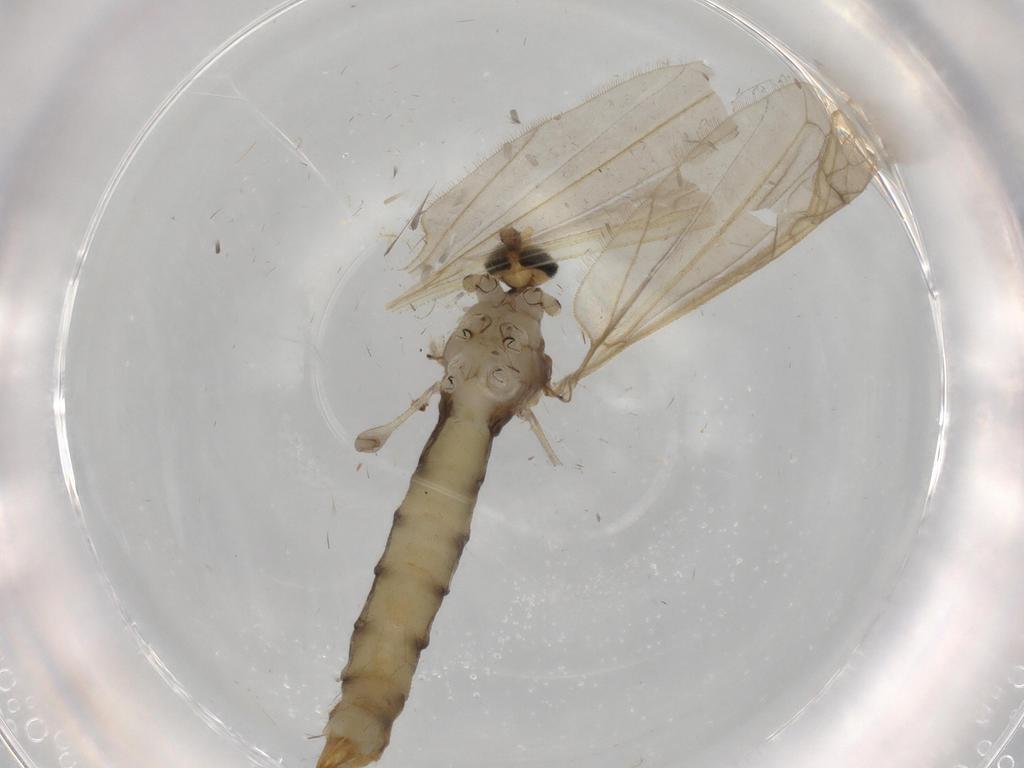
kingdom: Animalia
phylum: Arthropoda
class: Insecta
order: Diptera
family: Limoniidae
